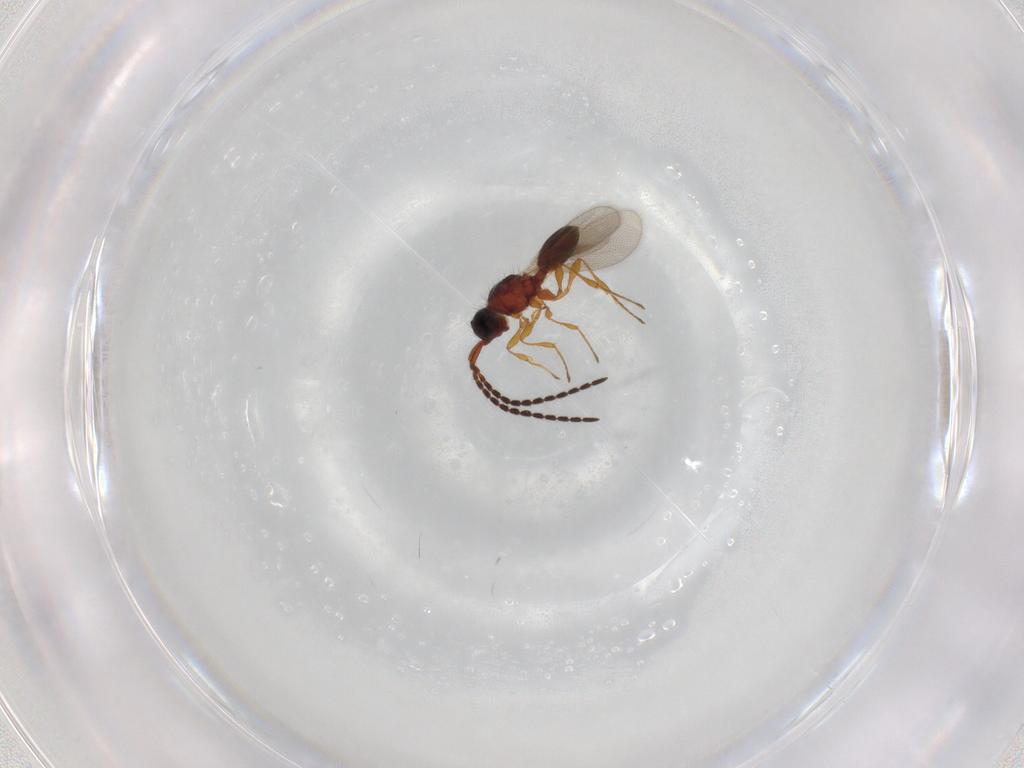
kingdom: Animalia
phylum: Arthropoda
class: Insecta
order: Hymenoptera
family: Diapriidae
